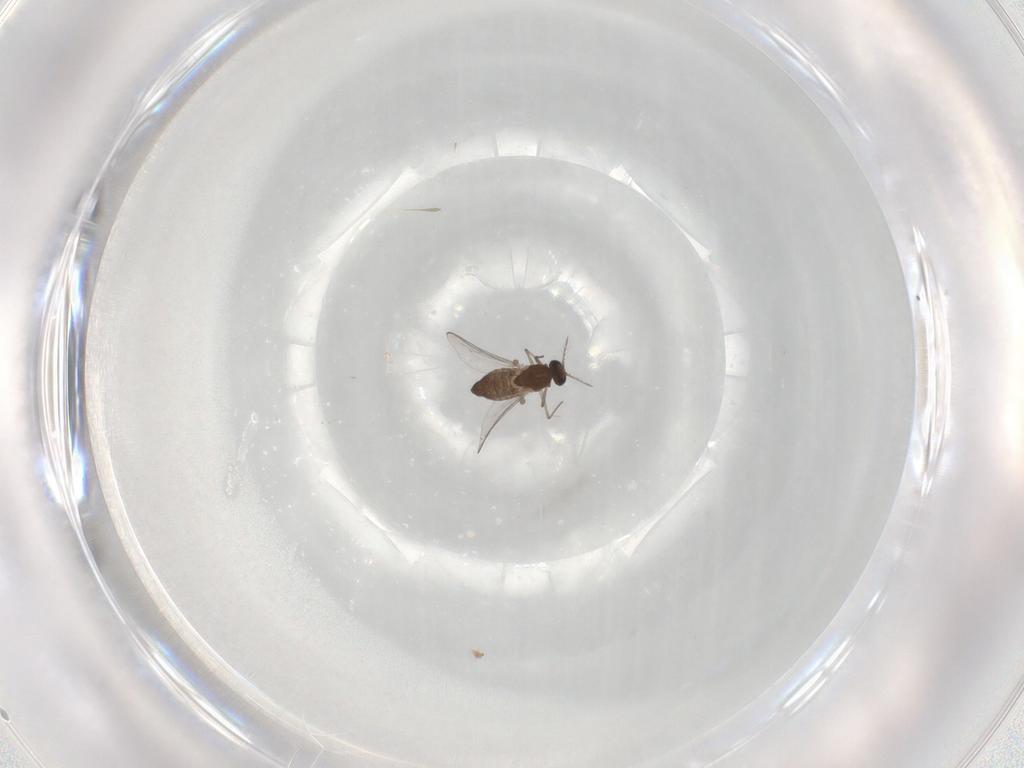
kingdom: Animalia
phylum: Arthropoda
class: Insecta
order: Diptera
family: Chironomidae
